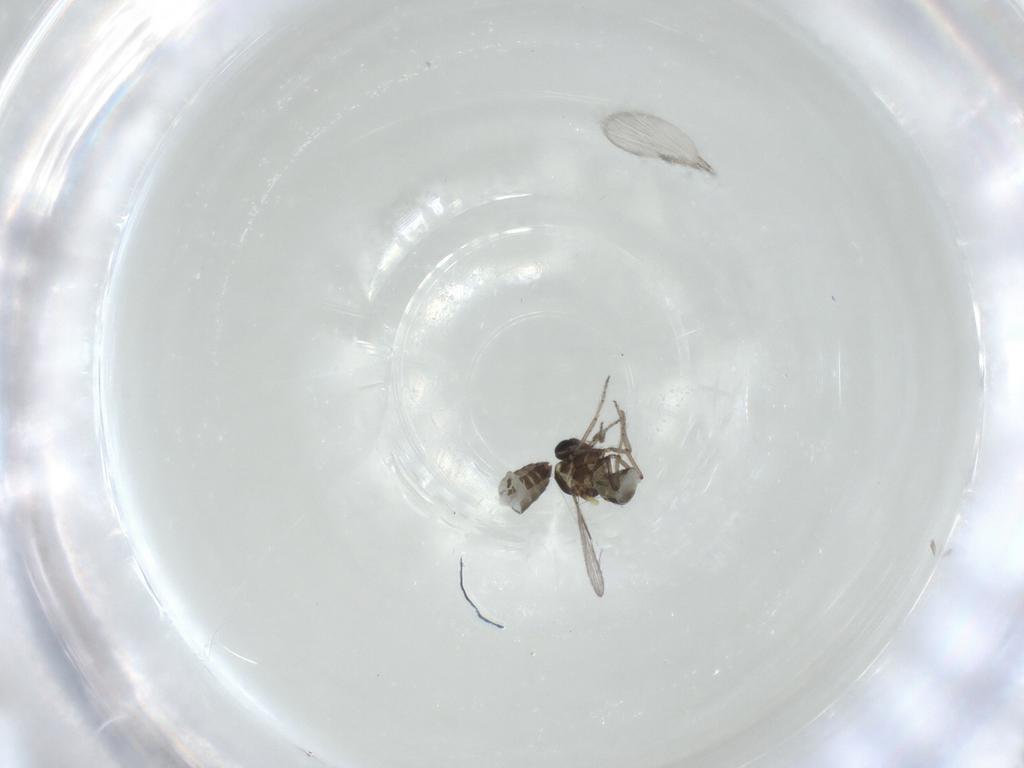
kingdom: Animalia
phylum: Arthropoda
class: Insecta
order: Diptera
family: Ceratopogonidae
